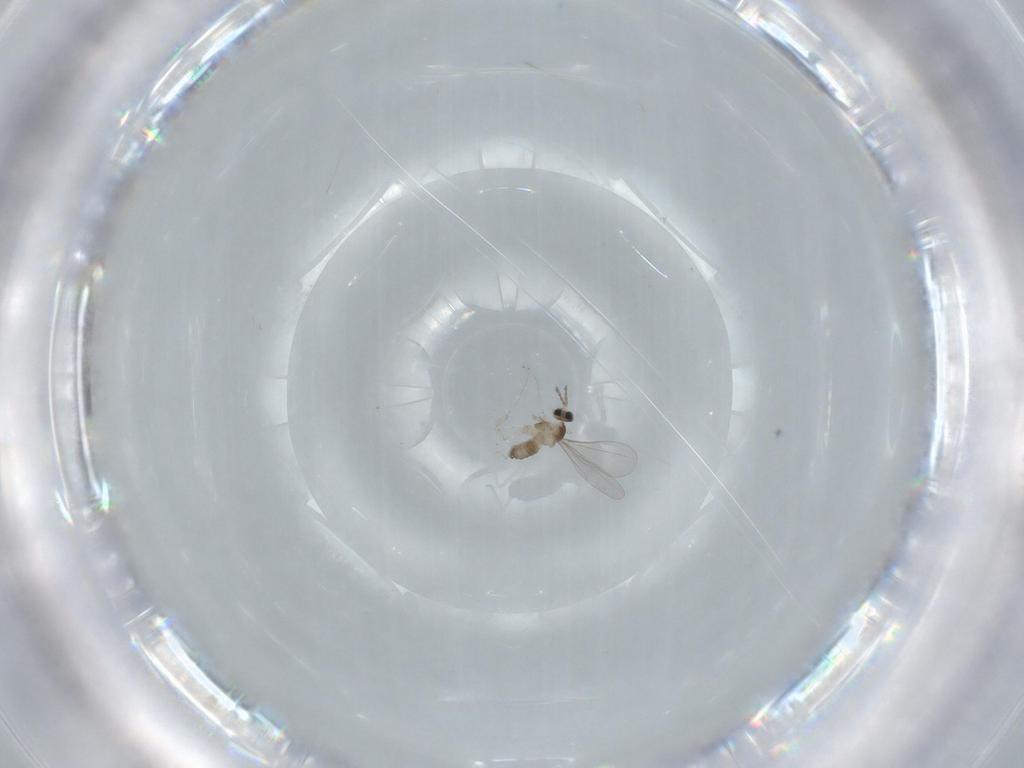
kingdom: Animalia
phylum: Arthropoda
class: Insecta
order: Diptera
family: Cecidomyiidae
